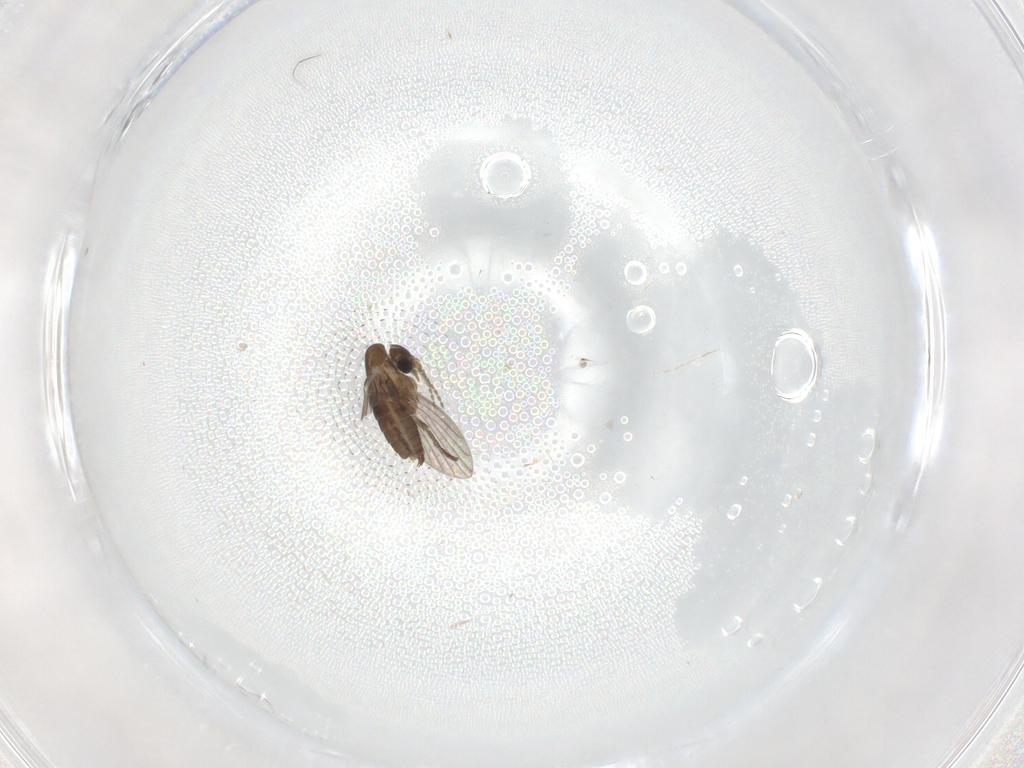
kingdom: Animalia
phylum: Arthropoda
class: Insecta
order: Diptera
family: Psychodidae
